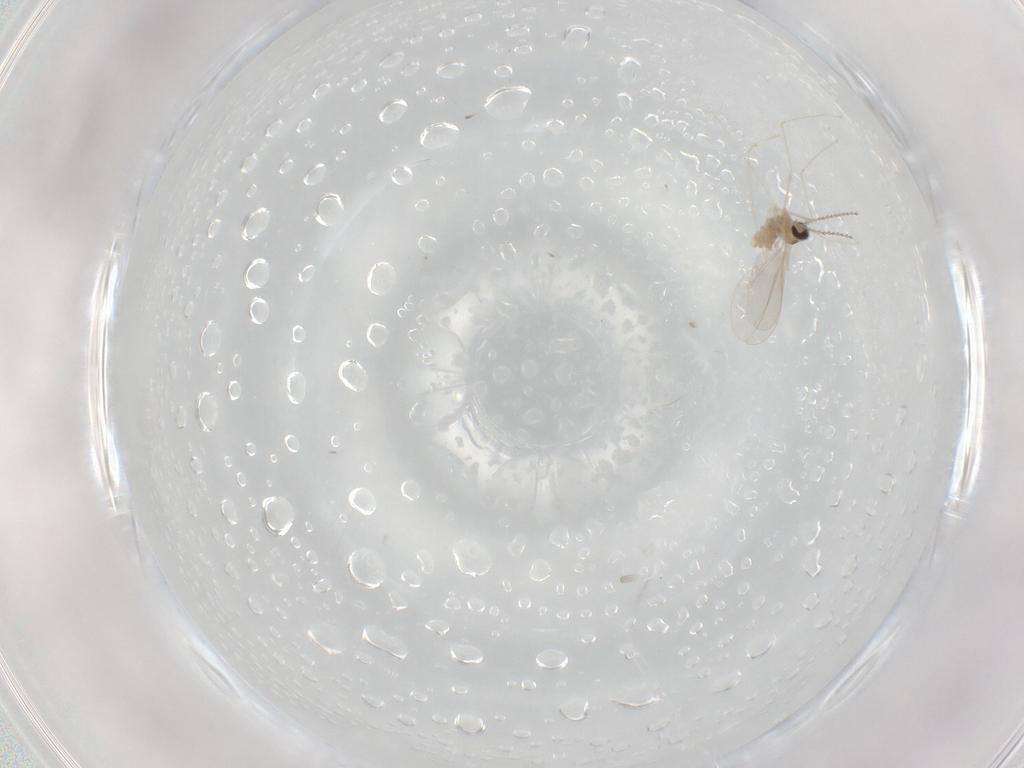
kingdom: Animalia
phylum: Arthropoda
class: Insecta
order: Diptera
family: Cecidomyiidae
